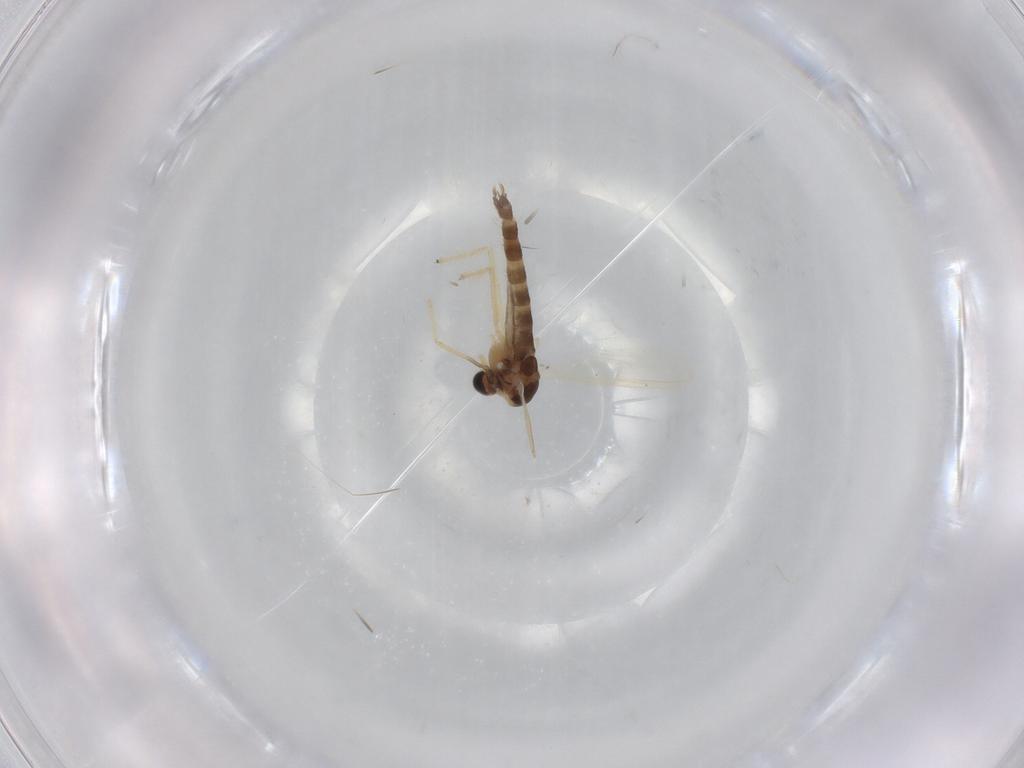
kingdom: Animalia
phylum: Arthropoda
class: Insecta
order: Diptera
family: Chironomidae
